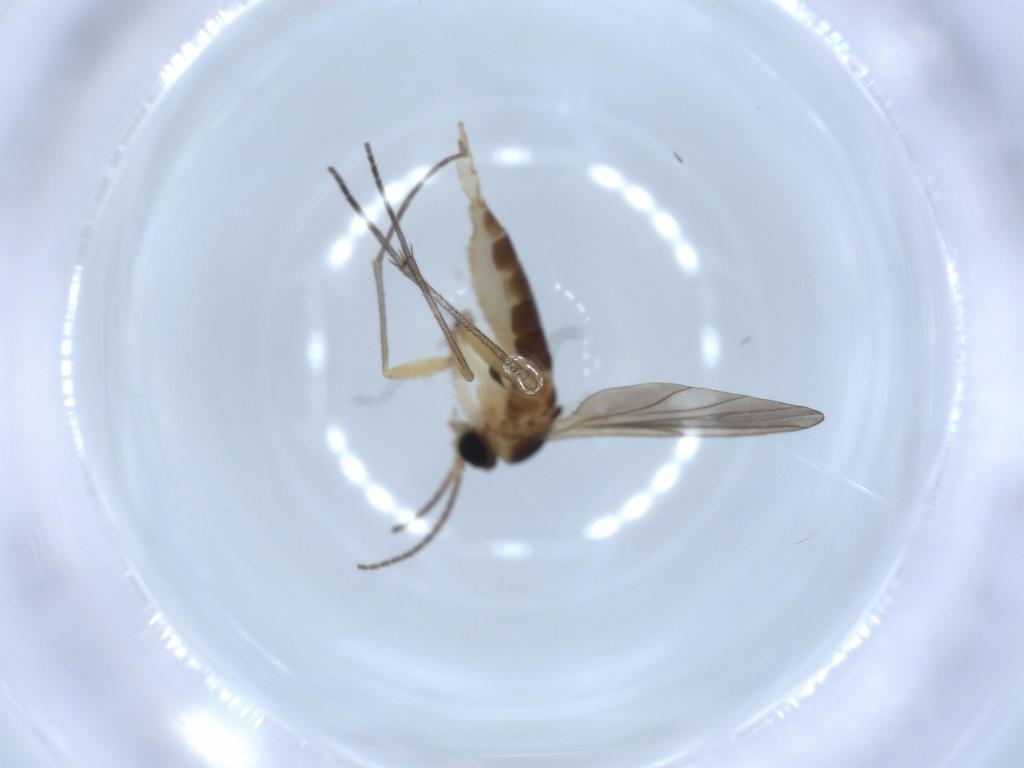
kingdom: Animalia
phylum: Arthropoda
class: Insecta
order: Diptera
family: Sciaridae
